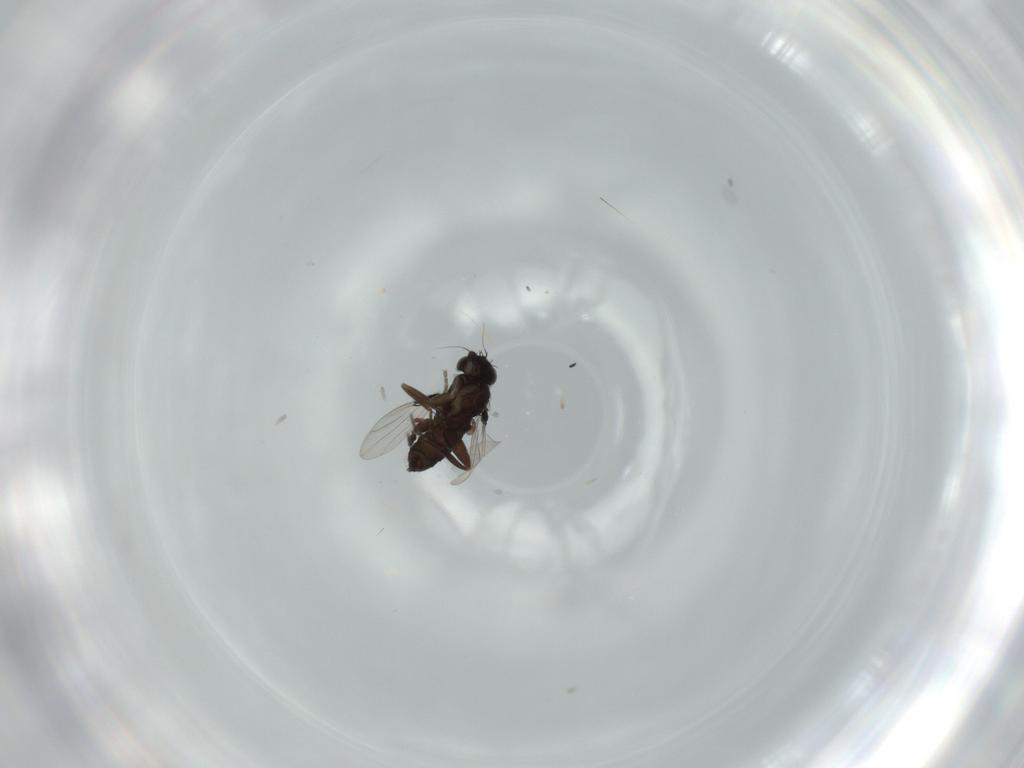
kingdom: Animalia
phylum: Arthropoda
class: Insecta
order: Diptera
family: Phoridae
